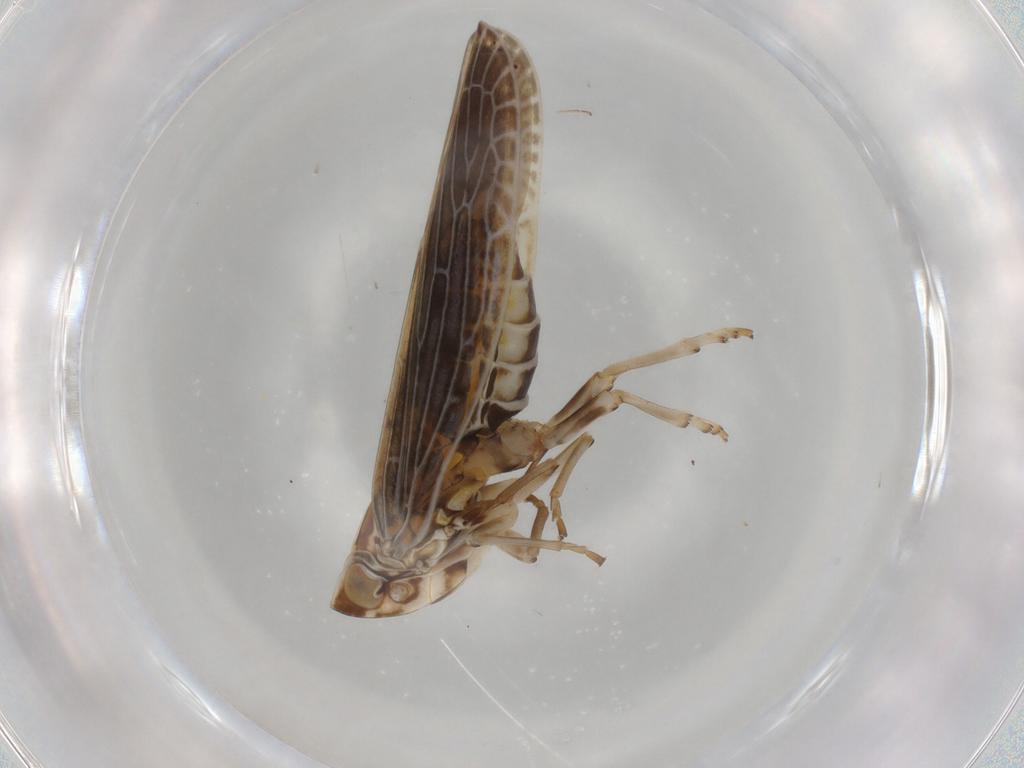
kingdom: Animalia
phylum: Arthropoda
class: Insecta
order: Hemiptera
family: Achilidae
